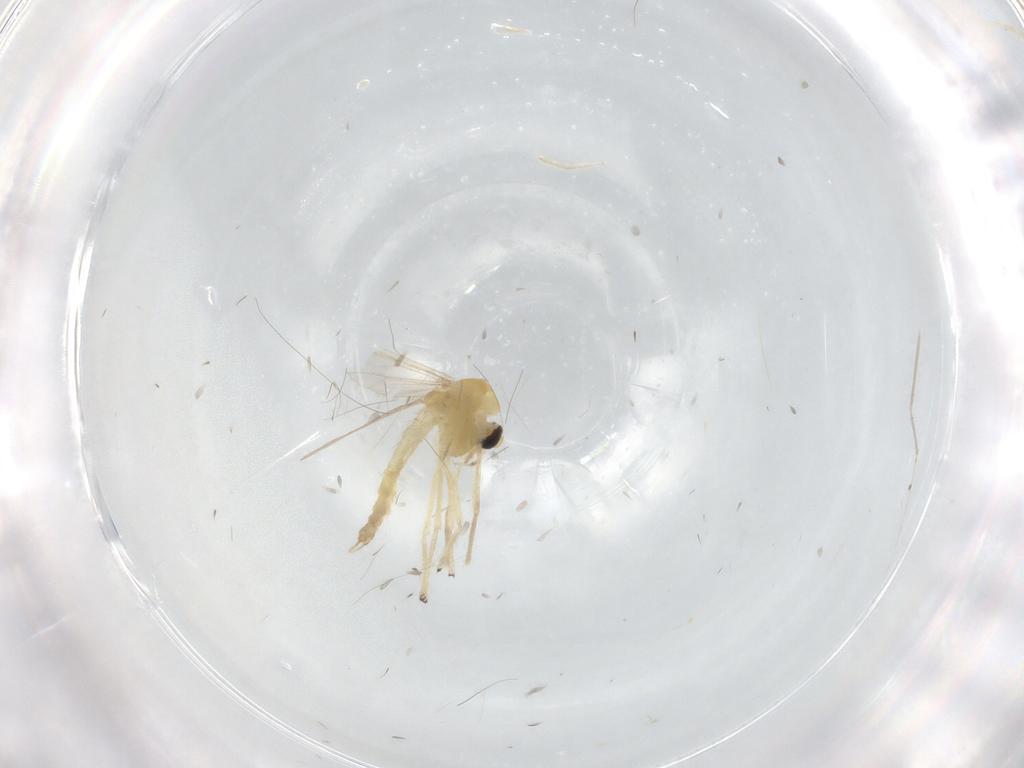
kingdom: Animalia
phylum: Arthropoda
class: Insecta
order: Diptera
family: Chironomidae
